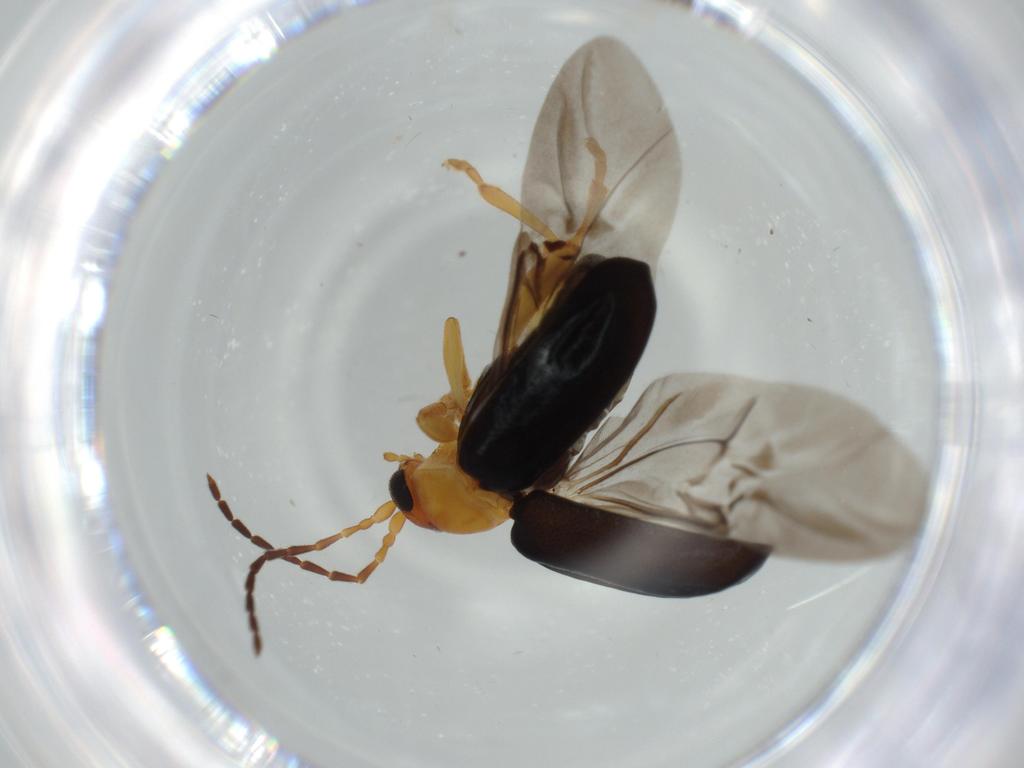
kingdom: Animalia
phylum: Arthropoda
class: Insecta
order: Coleoptera
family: Chrysomelidae
